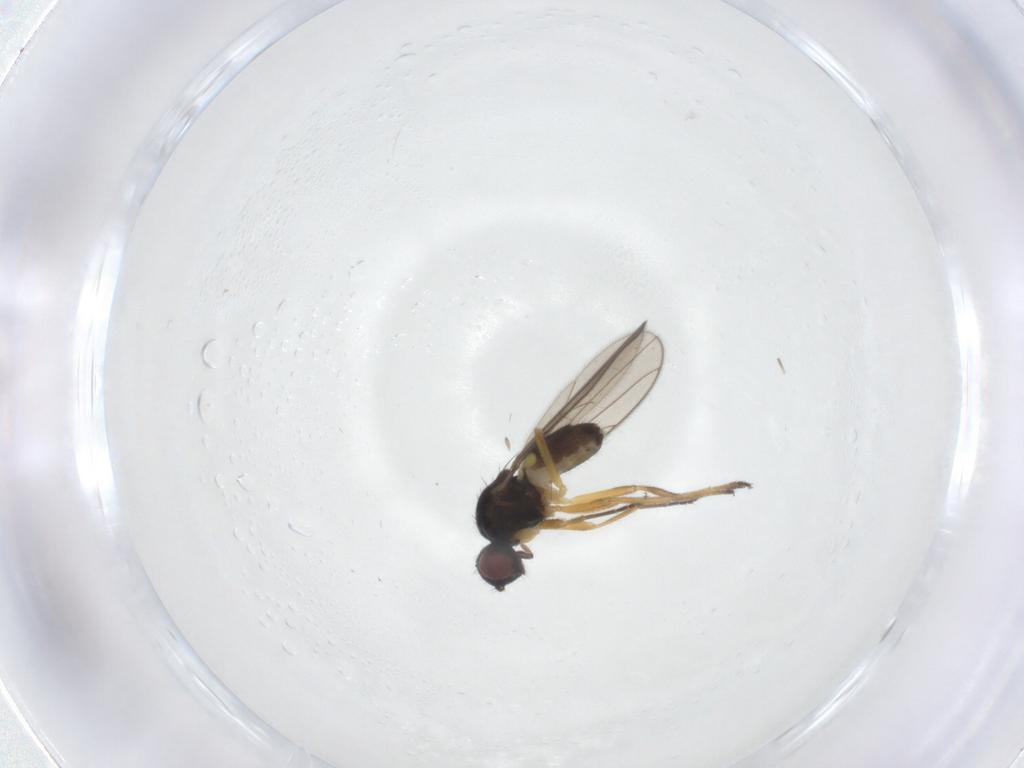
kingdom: Animalia
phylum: Arthropoda
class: Insecta
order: Diptera
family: Chloropidae
